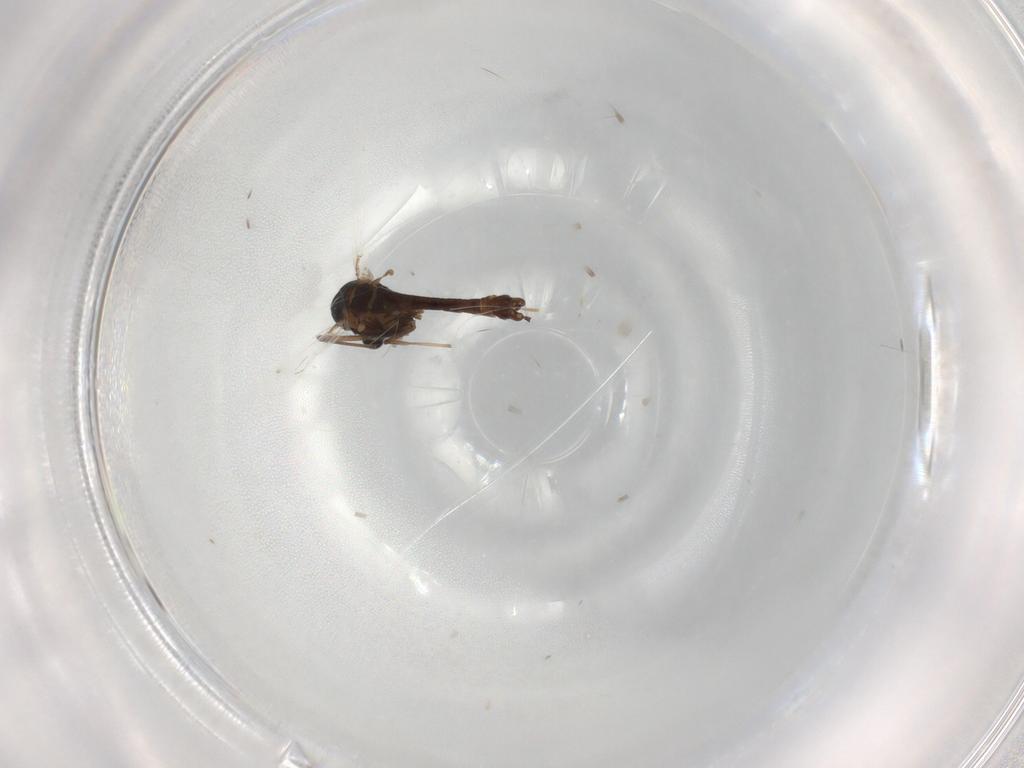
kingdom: Animalia
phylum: Arthropoda
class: Insecta
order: Diptera
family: Chironomidae
